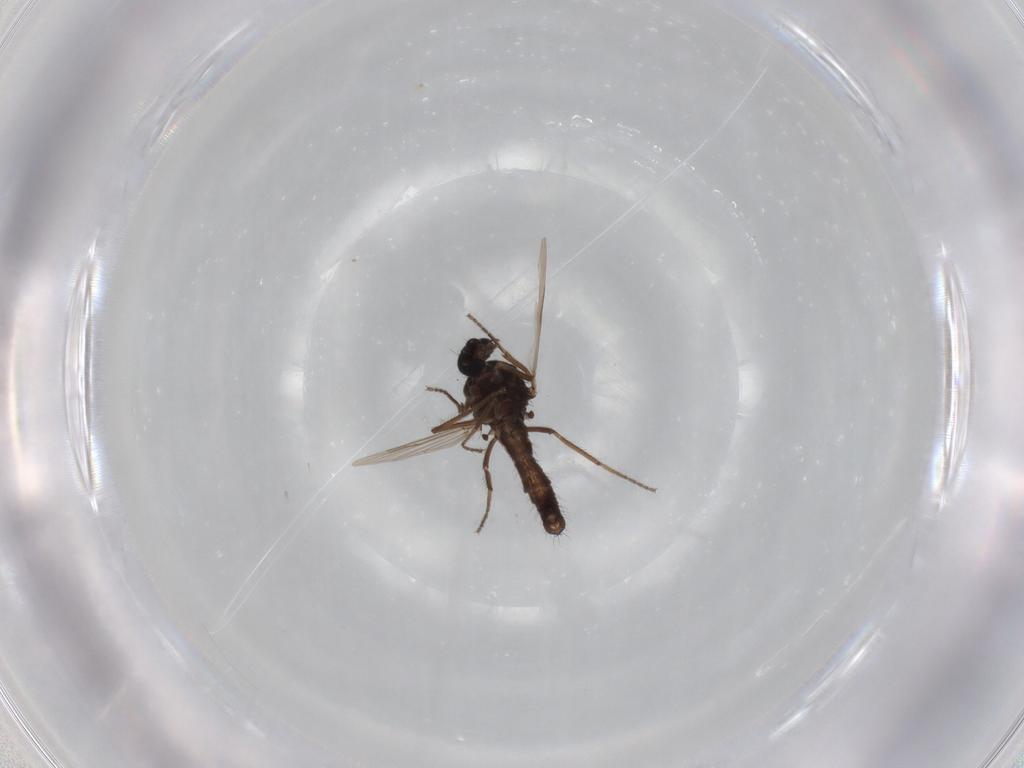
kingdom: Animalia
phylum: Arthropoda
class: Insecta
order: Diptera
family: Ceratopogonidae
